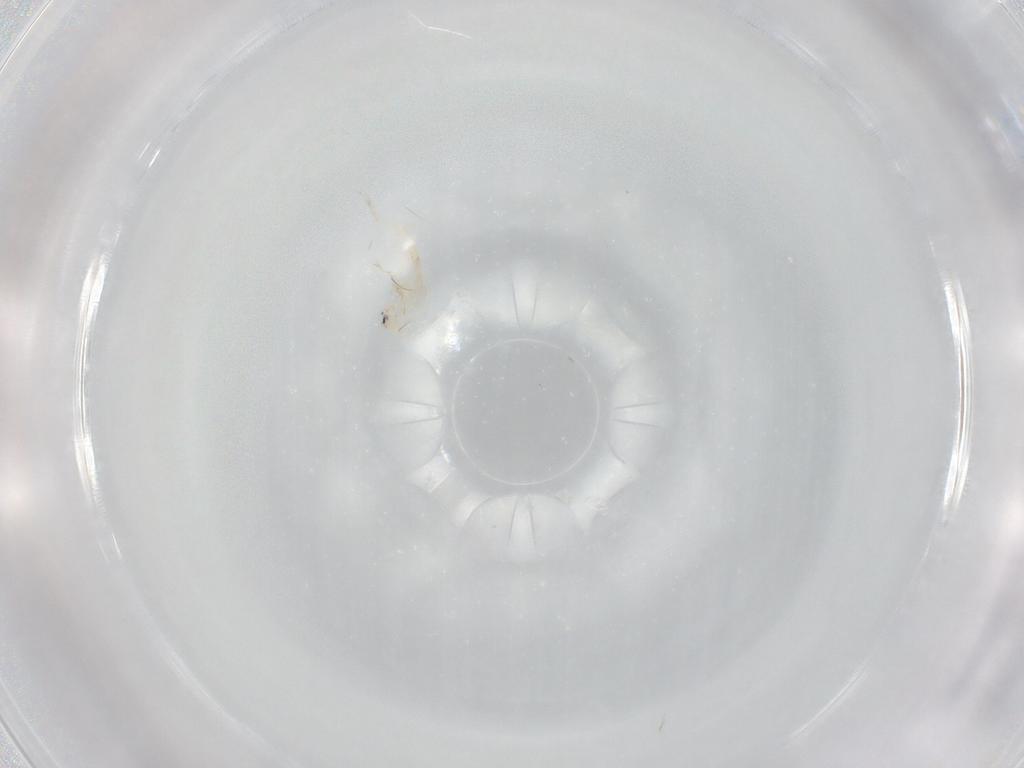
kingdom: Animalia
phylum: Arthropoda
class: Collembola
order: Entomobryomorpha
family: Entomobryidae
